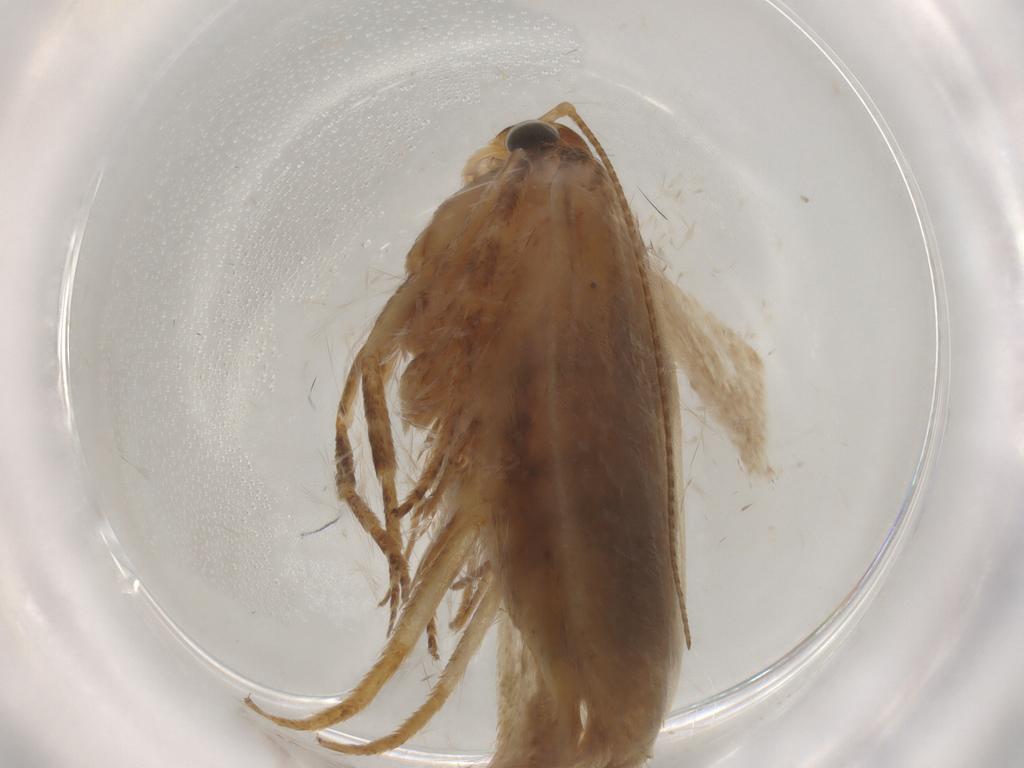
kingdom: Animalia
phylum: Arthropoda
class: Insecta
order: Lepidoptera
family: Erebidae
